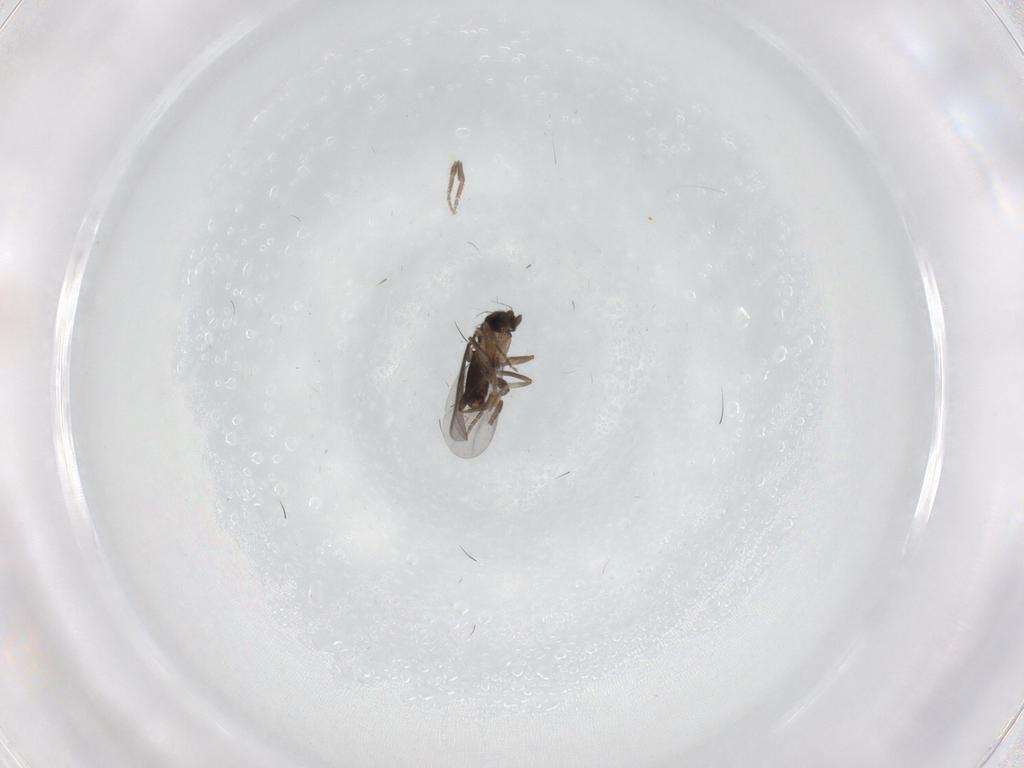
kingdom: Animalia
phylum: Arthropoda
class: Insecta
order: Diptera
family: Phoridae
